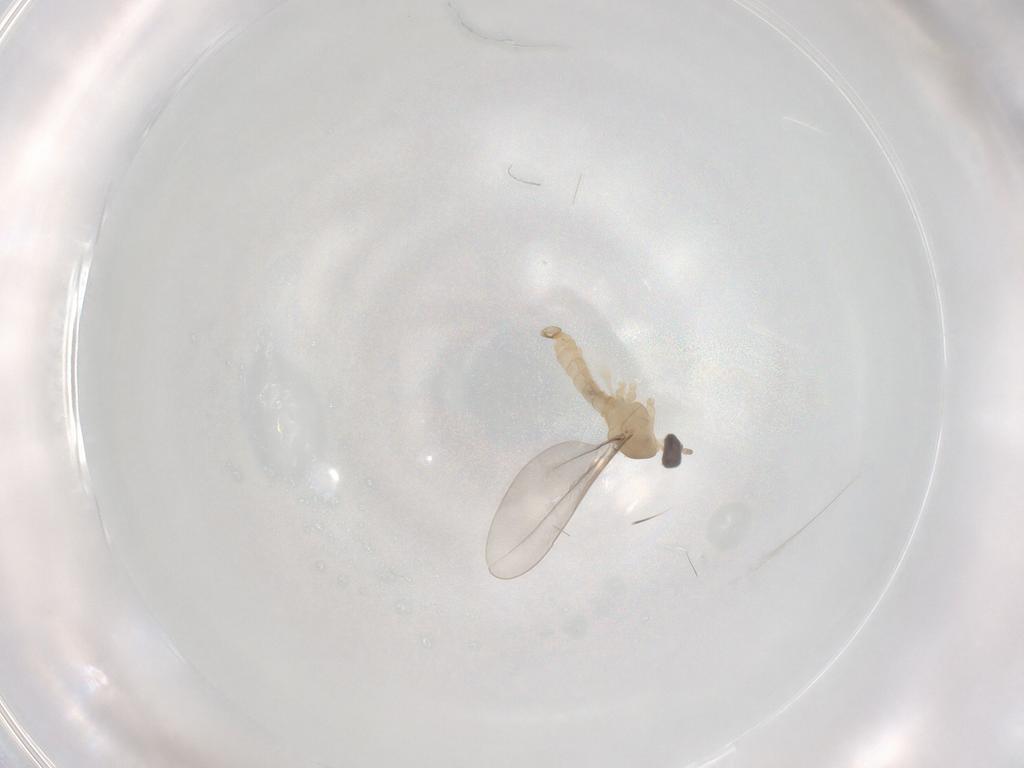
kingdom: Animalia
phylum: Arthropoda
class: Insecta
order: Diptera
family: Cecidomyiidae
